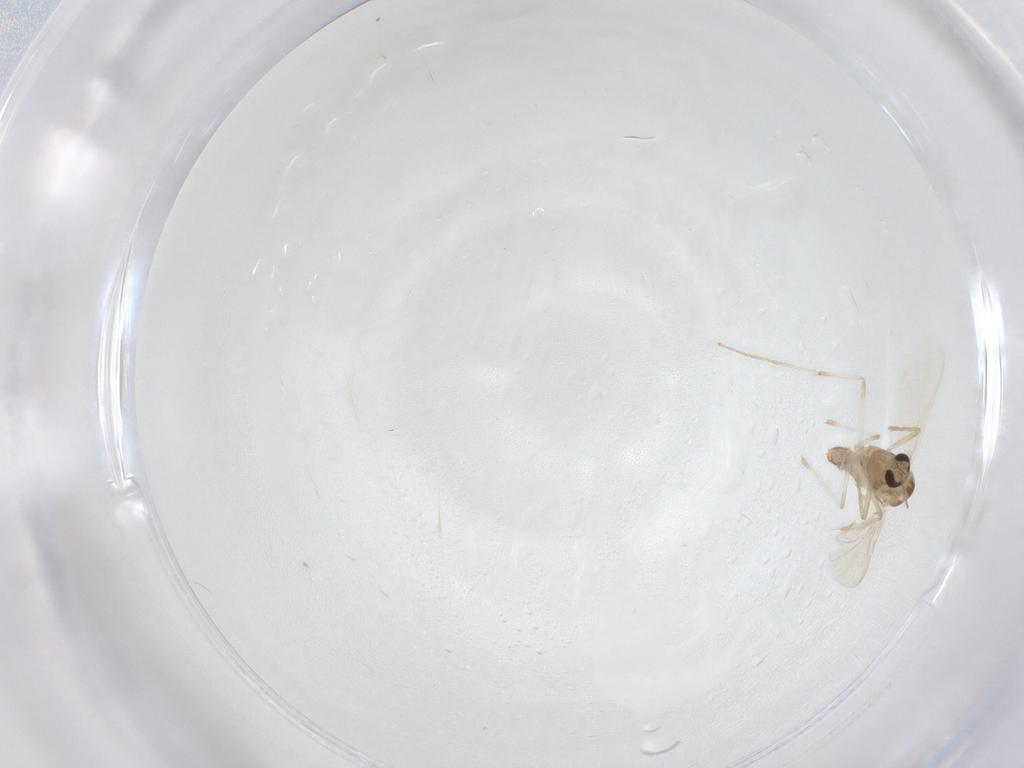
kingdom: Animalia
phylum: Arthropoda
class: Insecta
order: Diptera
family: Chironomidae
